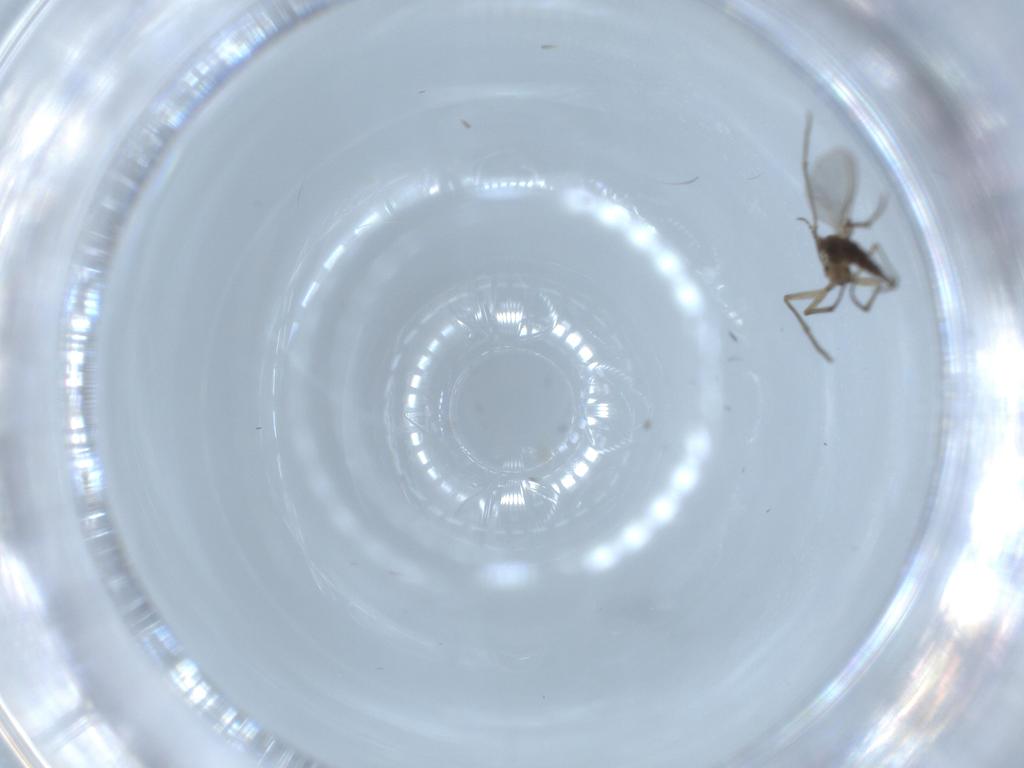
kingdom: Animalia
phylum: Arthropoda
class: Insecta
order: Diptera
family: Sciaridae
